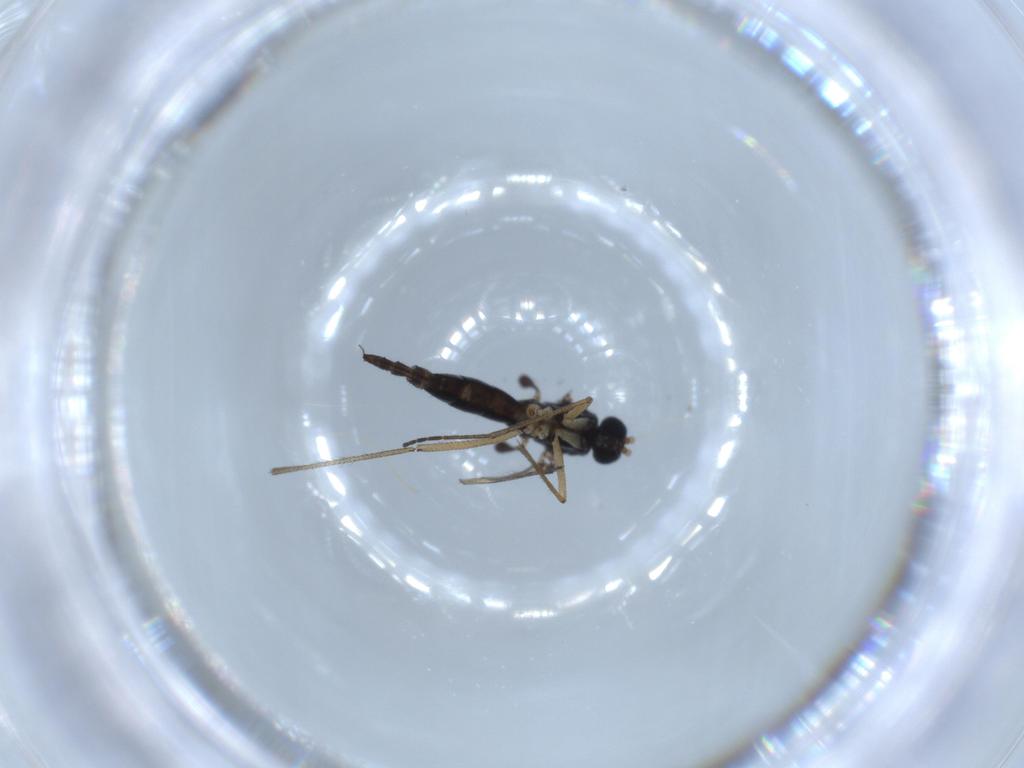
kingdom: Animalia
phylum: Arthropoda
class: Insecta
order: Diptera
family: Sciaridae
